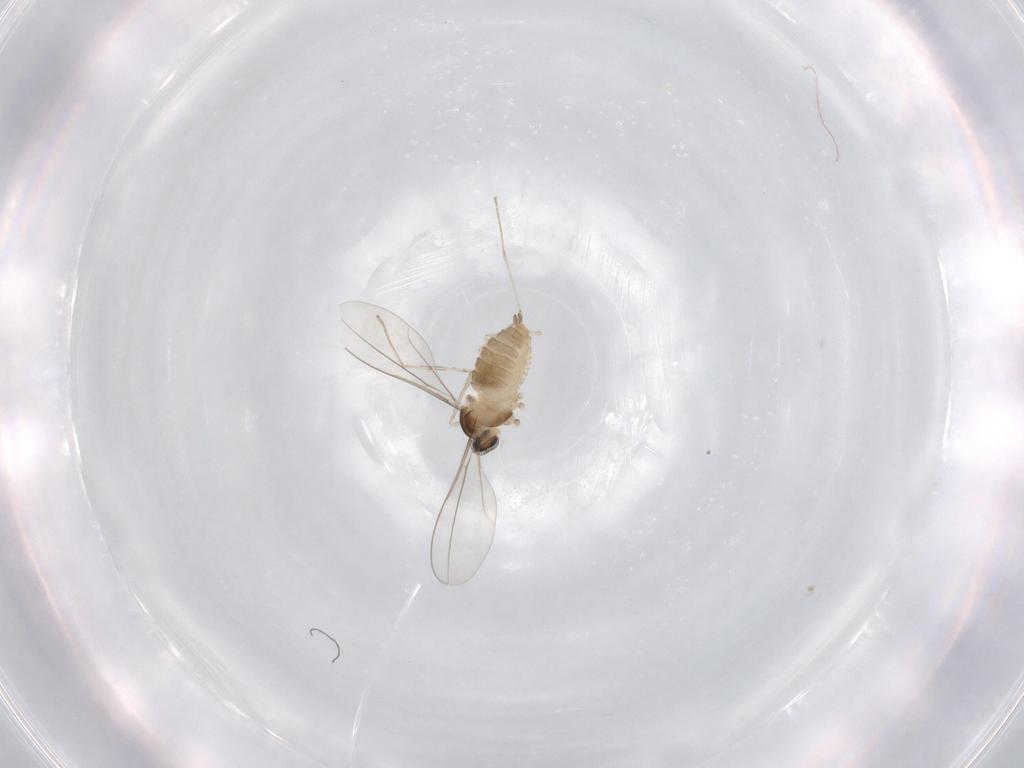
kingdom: Animalia
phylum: Arthropoda
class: Insecta
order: Diptera
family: Cecidomyiidae
